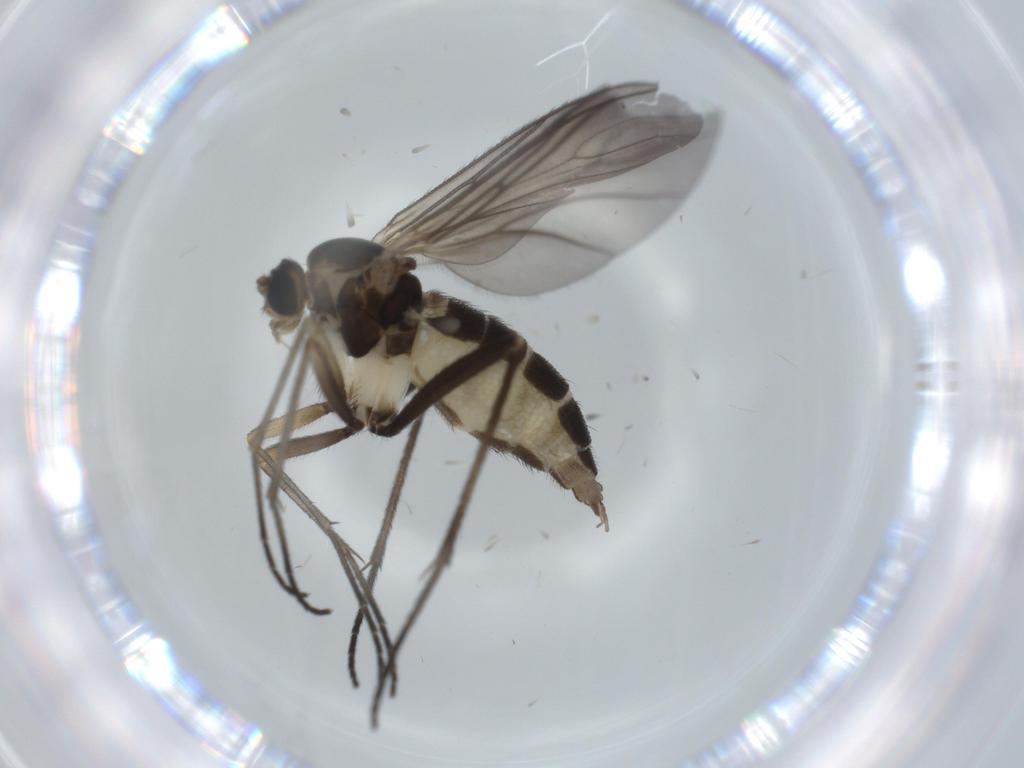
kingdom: Animalia
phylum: Arthropoda
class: Insecta
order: Diptera
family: Sciaridae
